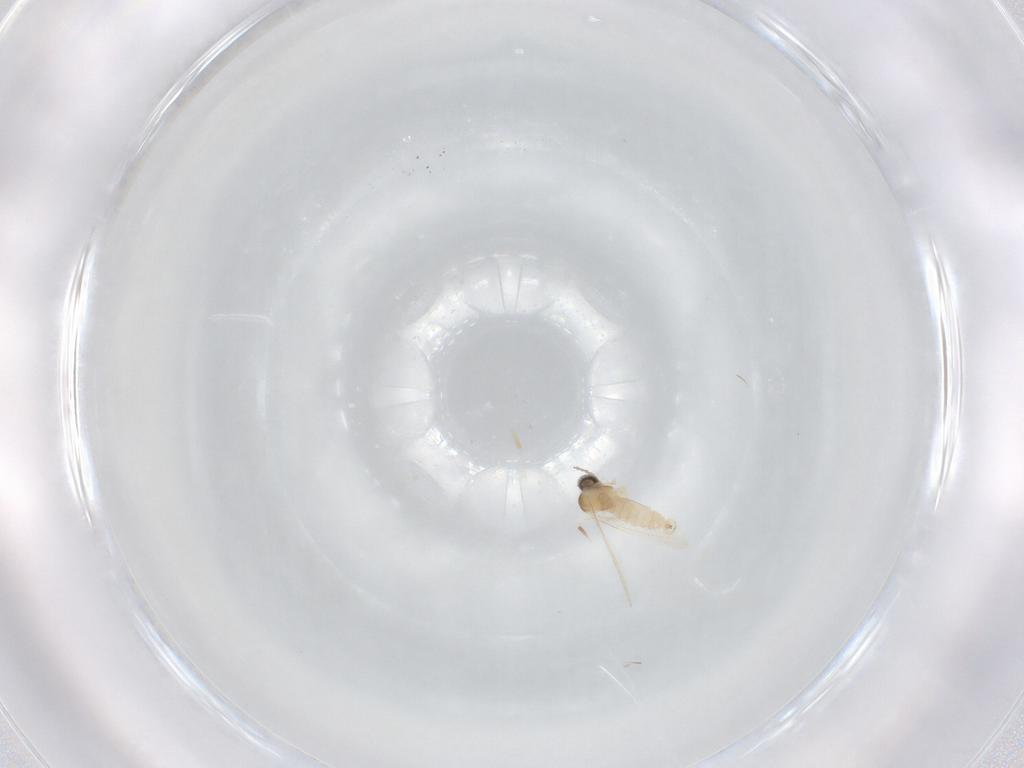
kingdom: Animalia
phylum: Arthropoda
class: Insecta
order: Diptera
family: Cecidomyiidae
